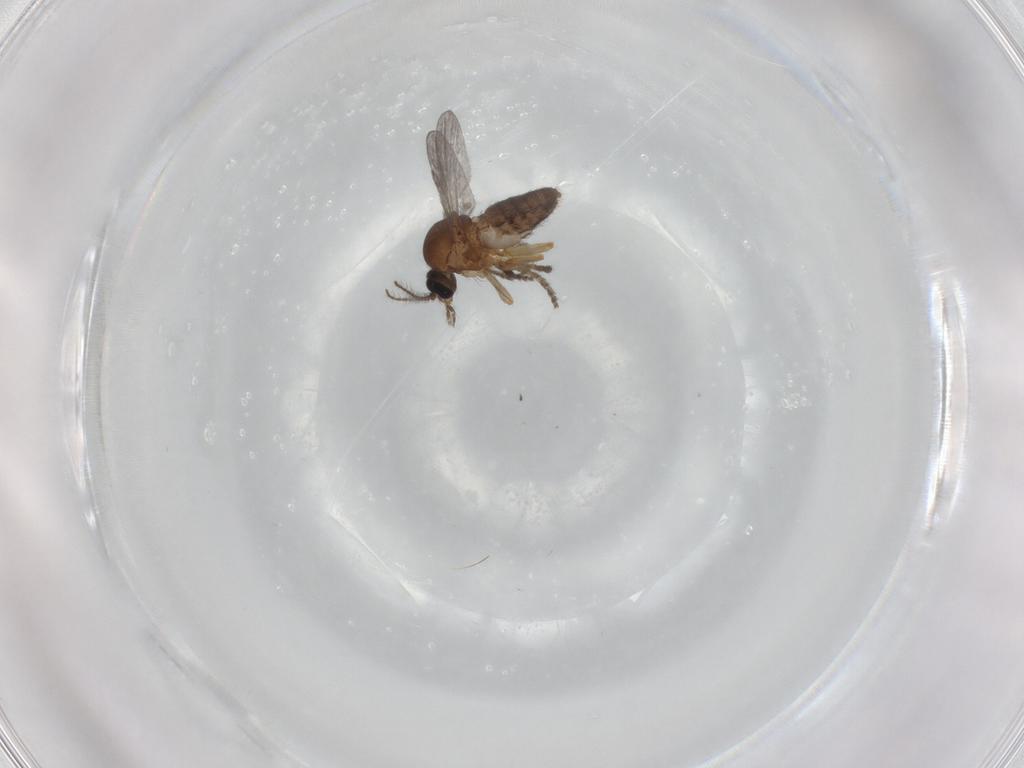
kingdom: Animalia
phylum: Arthropoda
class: Insecta
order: Diptera
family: Ceratopogonidae
